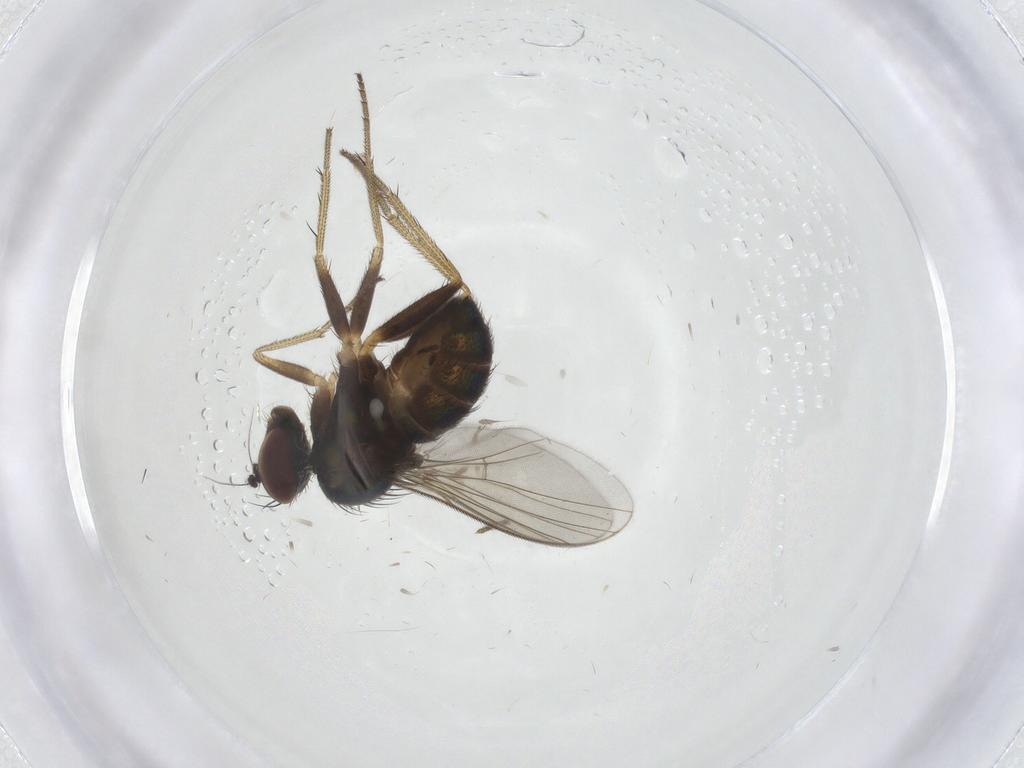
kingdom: Animalia
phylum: Arthropoda
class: Insecta
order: Diptera
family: Dolichopodidae
